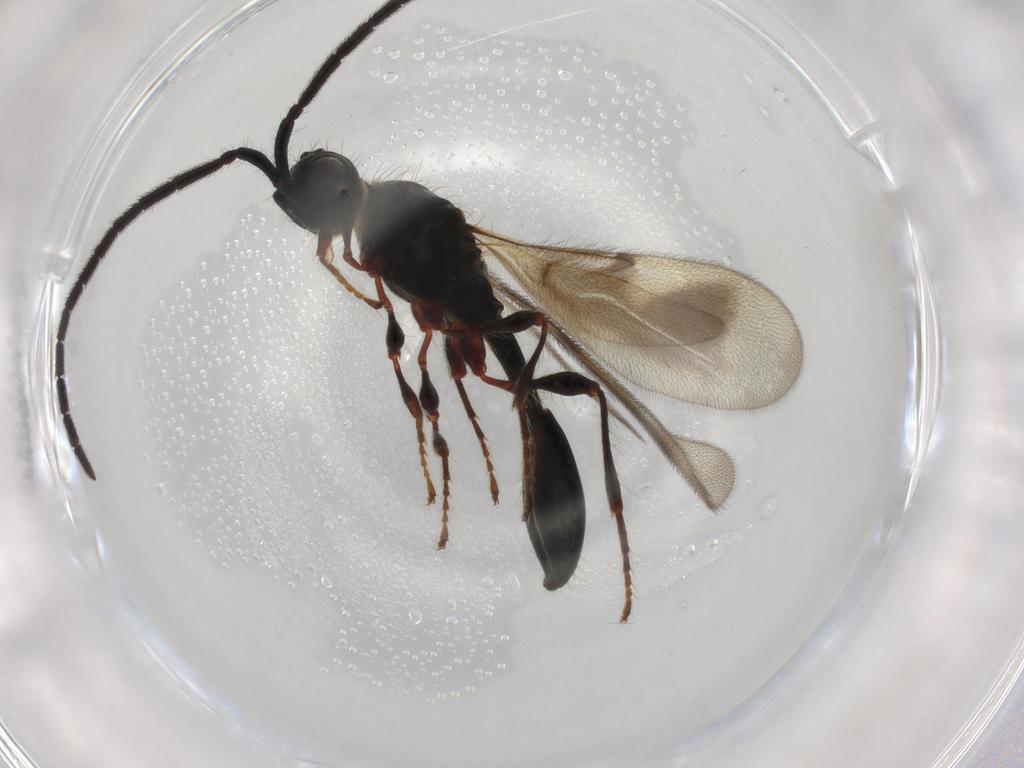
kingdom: Animalia
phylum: Arthropoda
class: Insecta
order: Hymenoptera
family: Diapriidae
